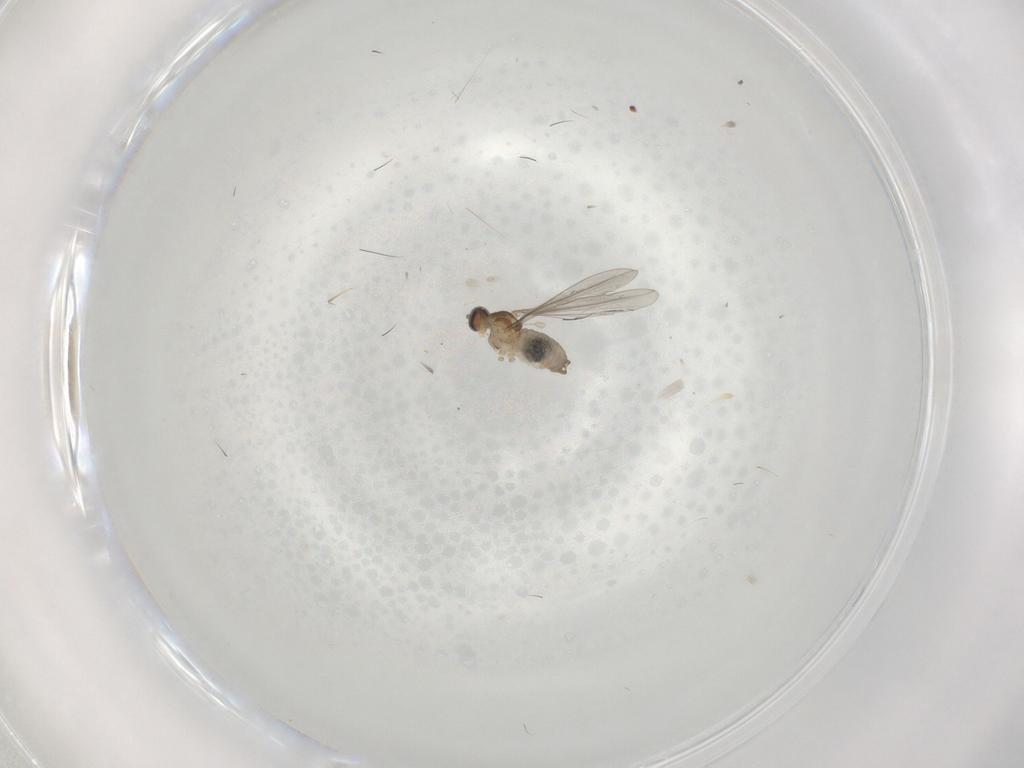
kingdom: Animalia
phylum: Arthropoda
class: Insecta
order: Diptera
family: Cecidomyiidae
